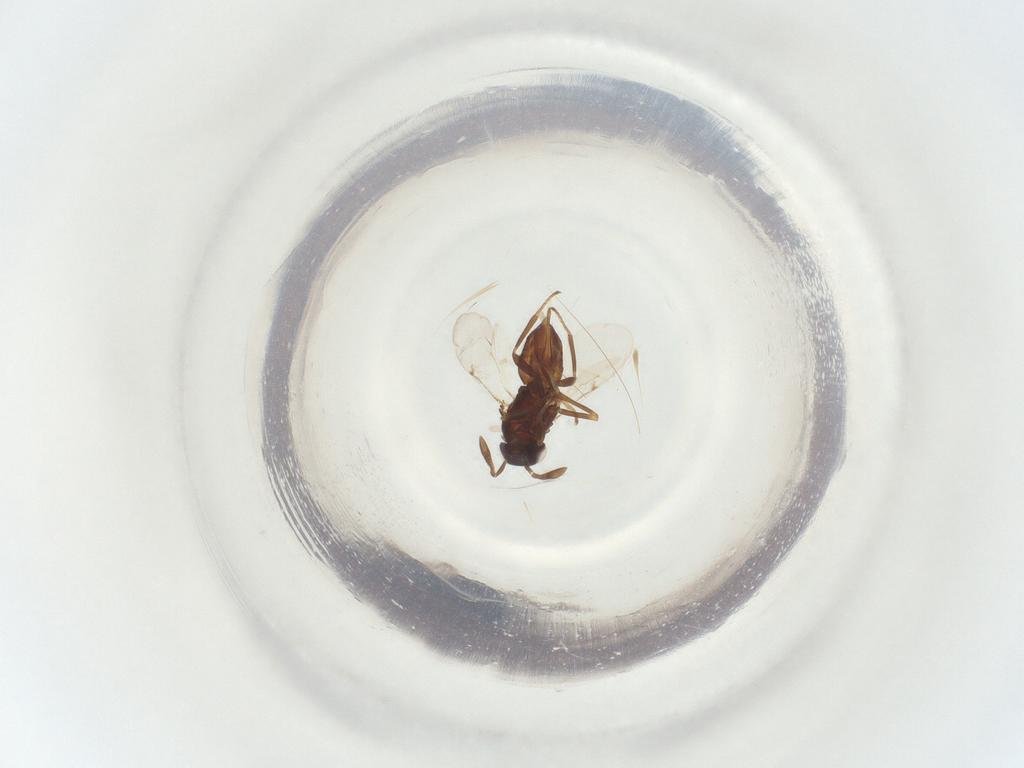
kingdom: Animalia
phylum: Arthropoda
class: Insecta
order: Hymenoptera
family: Encyrtidae
